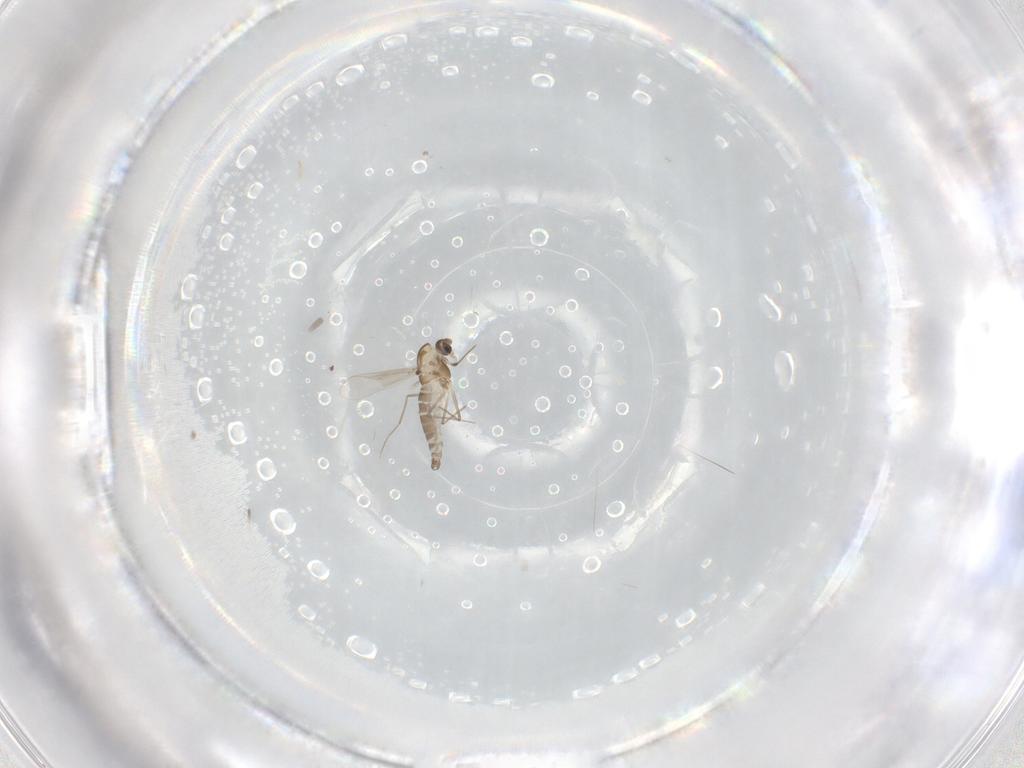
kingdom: Animalia
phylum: Arthropoda
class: Insecta
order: Diptera
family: Chironomidae
